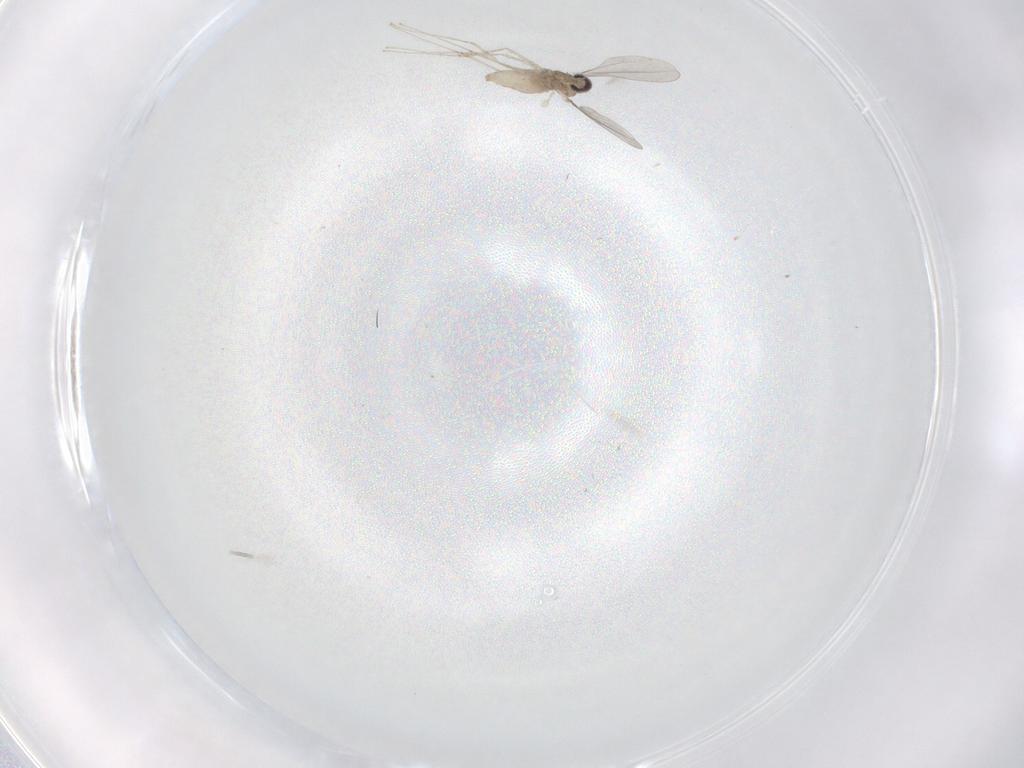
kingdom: Animalia
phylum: Arthropoda
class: Insecta
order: Diptera
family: Cecidomyiidae
